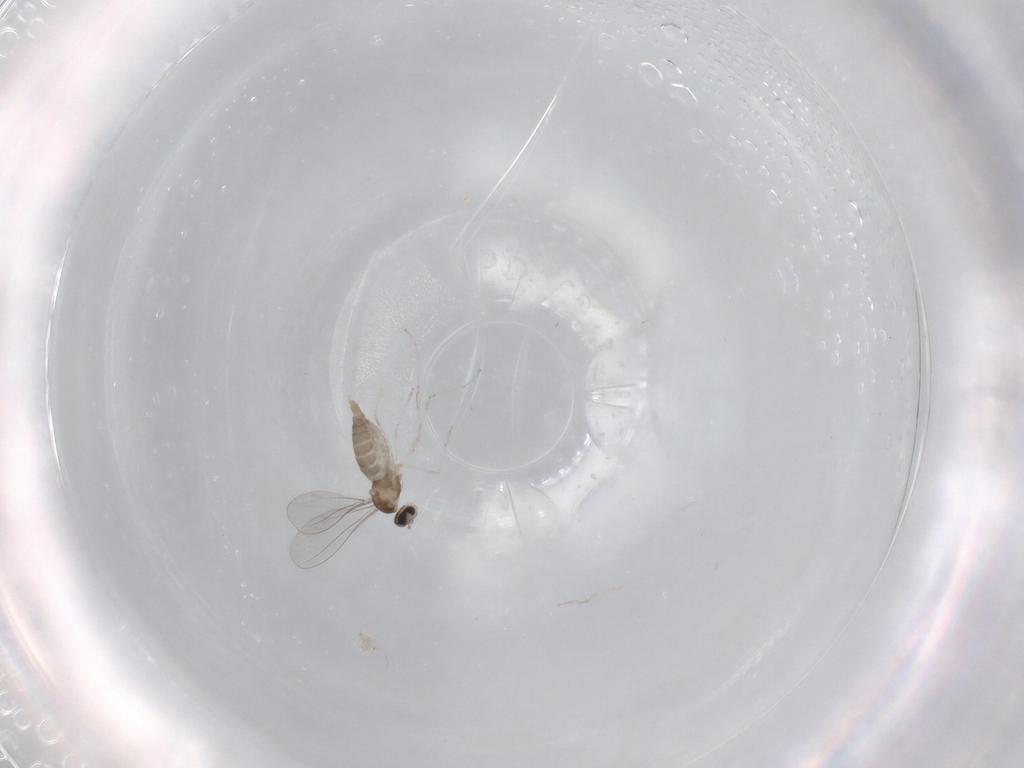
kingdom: Animalia
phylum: Arthropoda
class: Insecta
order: Diptera
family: Cecidomyiidae
